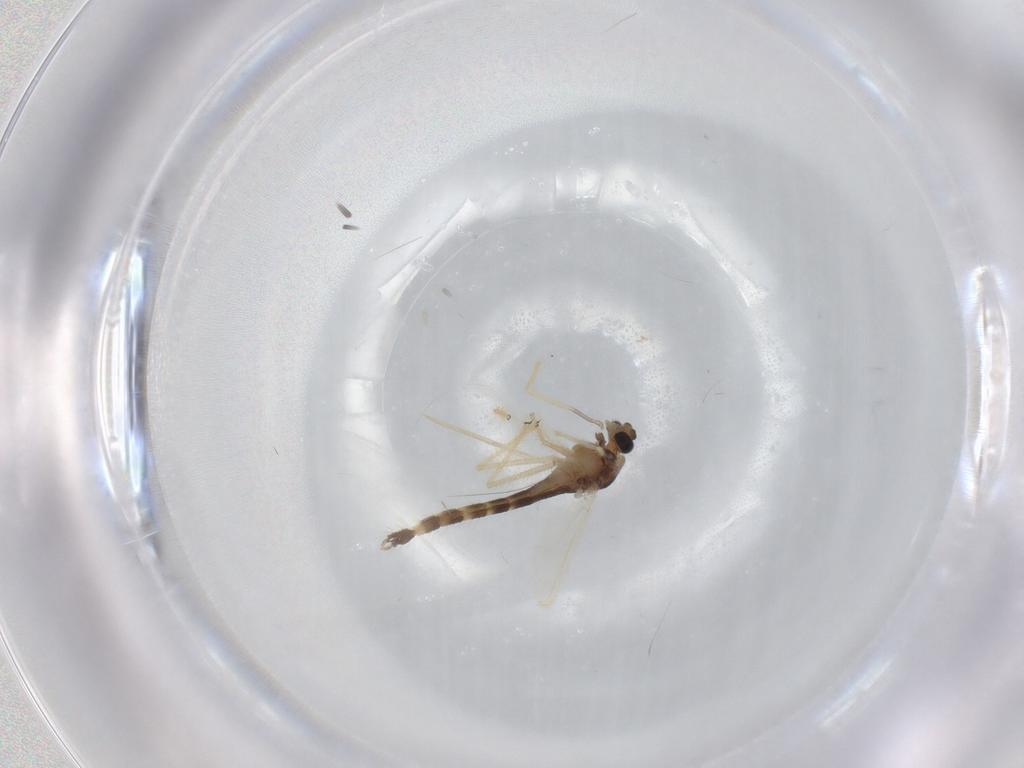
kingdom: Animalia
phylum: Arthropoda
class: Insecta
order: Diptera
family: Chironomidae
